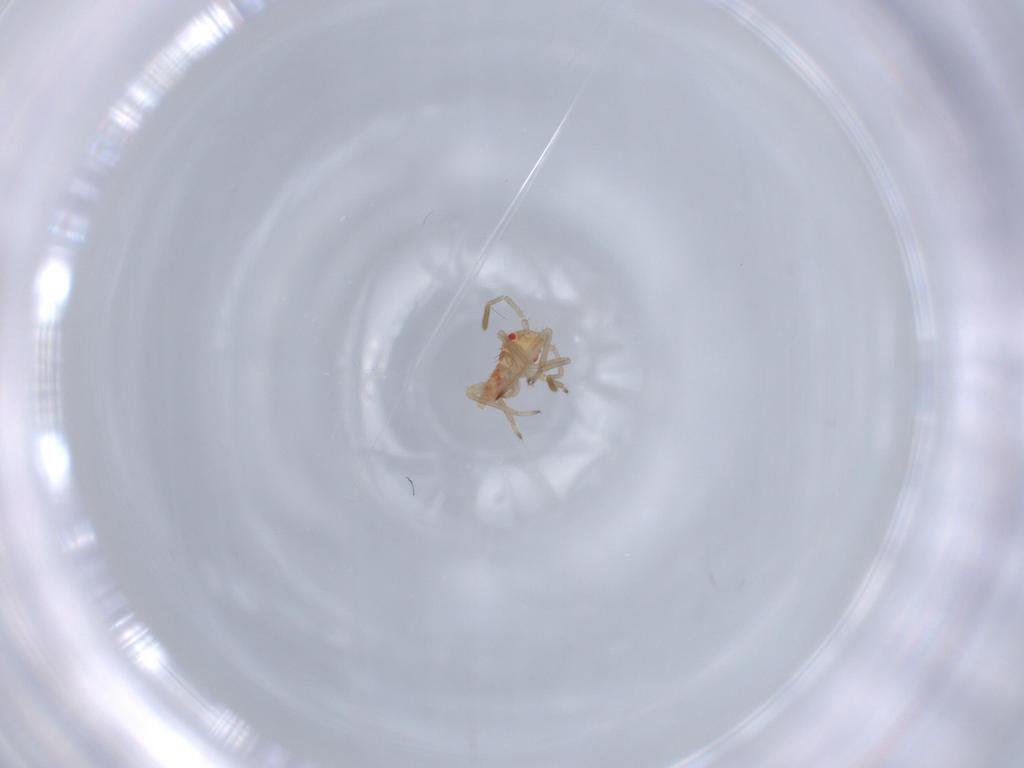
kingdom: Animalia
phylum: Arthropoda
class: Insecta
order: Hemiptera
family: Miridae
